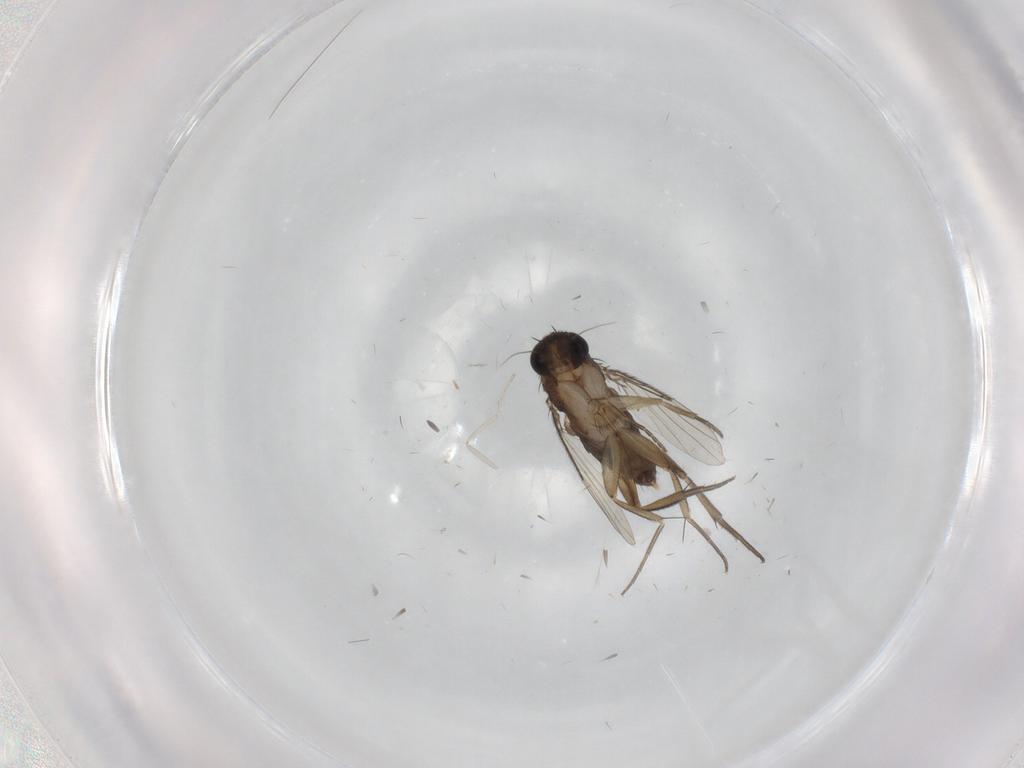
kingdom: Animalia
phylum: Arthropoda
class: Insecta
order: Diptera
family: Phoridae
